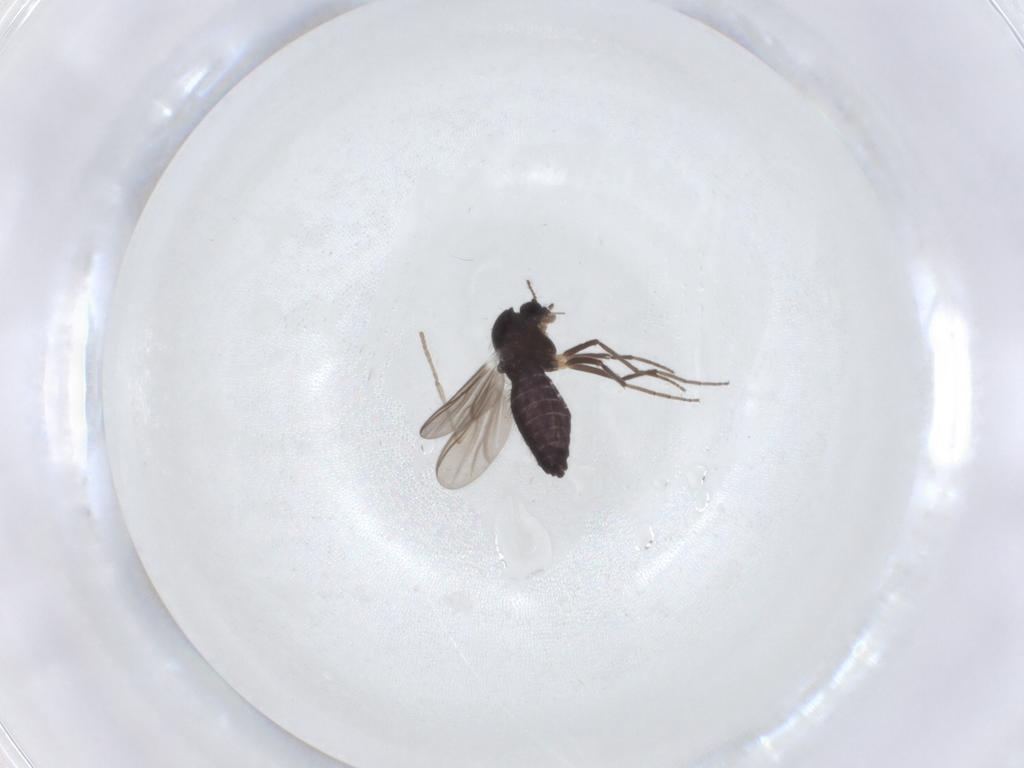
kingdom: Animalia
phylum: Arthropoda
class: Insecta
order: Diptera
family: Chironomidae
